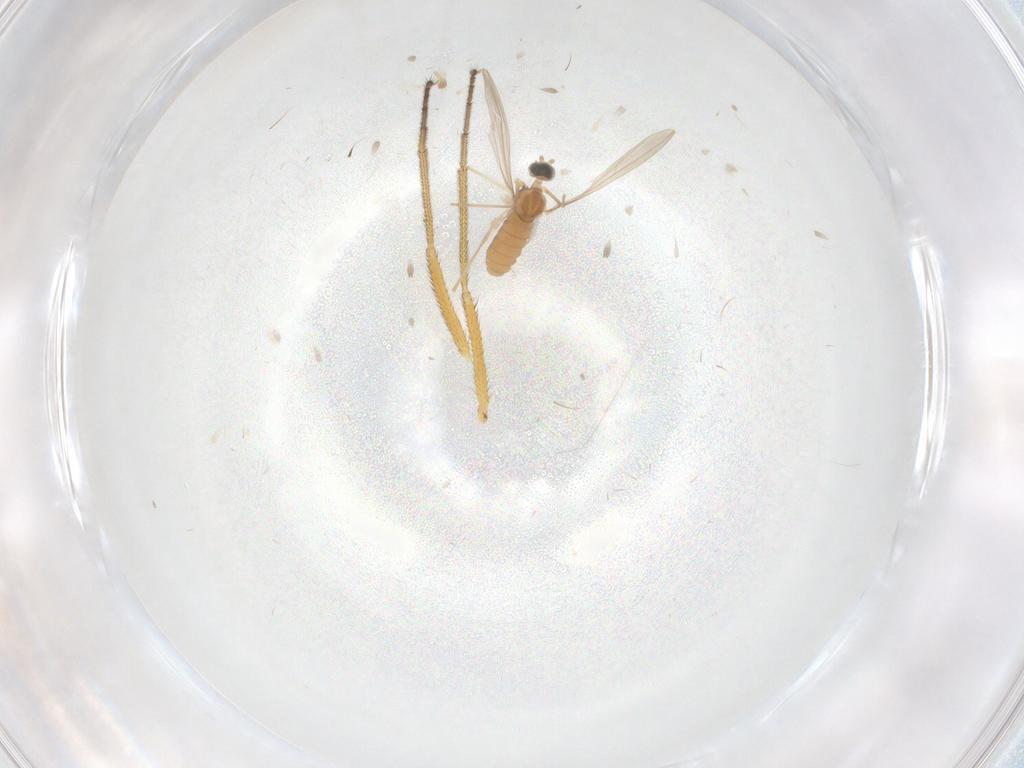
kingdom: Animalia
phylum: Arthropoda
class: Insecta
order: Diptera
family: Dolichopodidae
